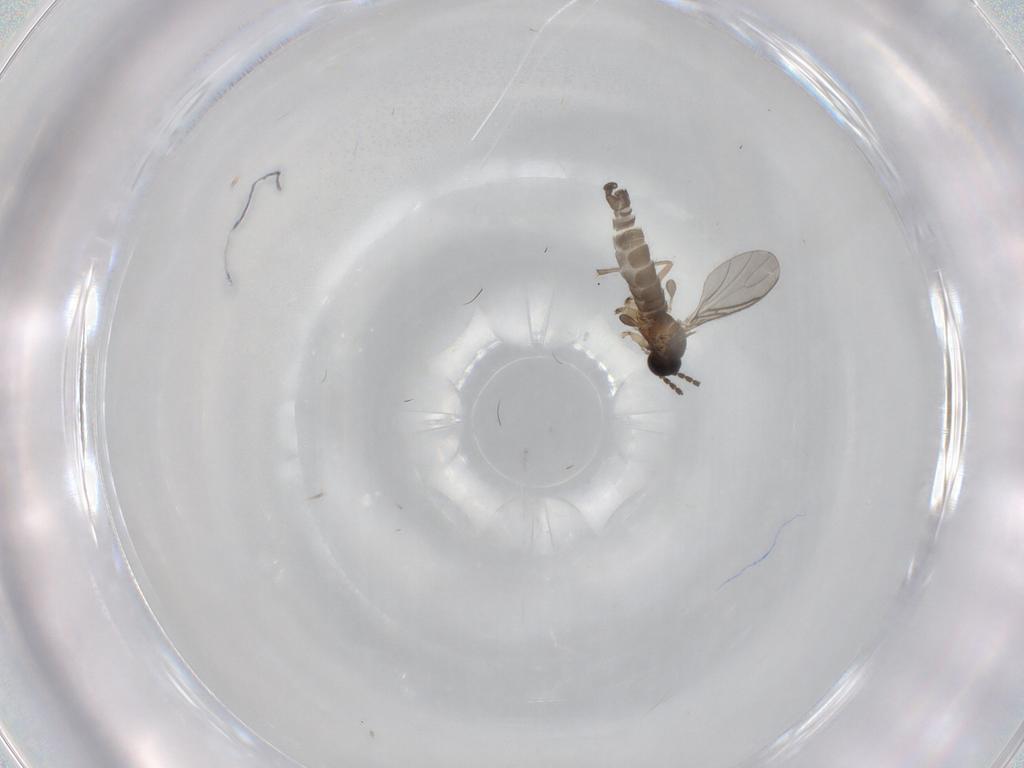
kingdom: Animalia
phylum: Arthropoda
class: Insecta
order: Diptera
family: Sciaridae
